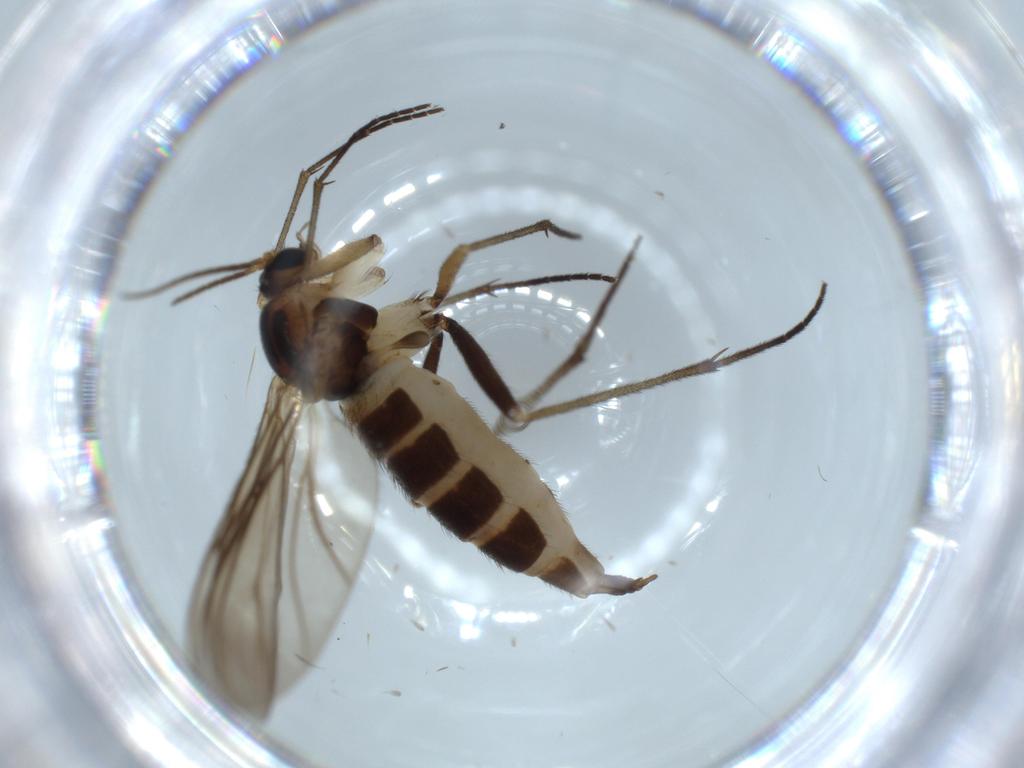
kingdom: Animalia
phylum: Arthropoda
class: Insecta
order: Diptera
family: Sciaridae
